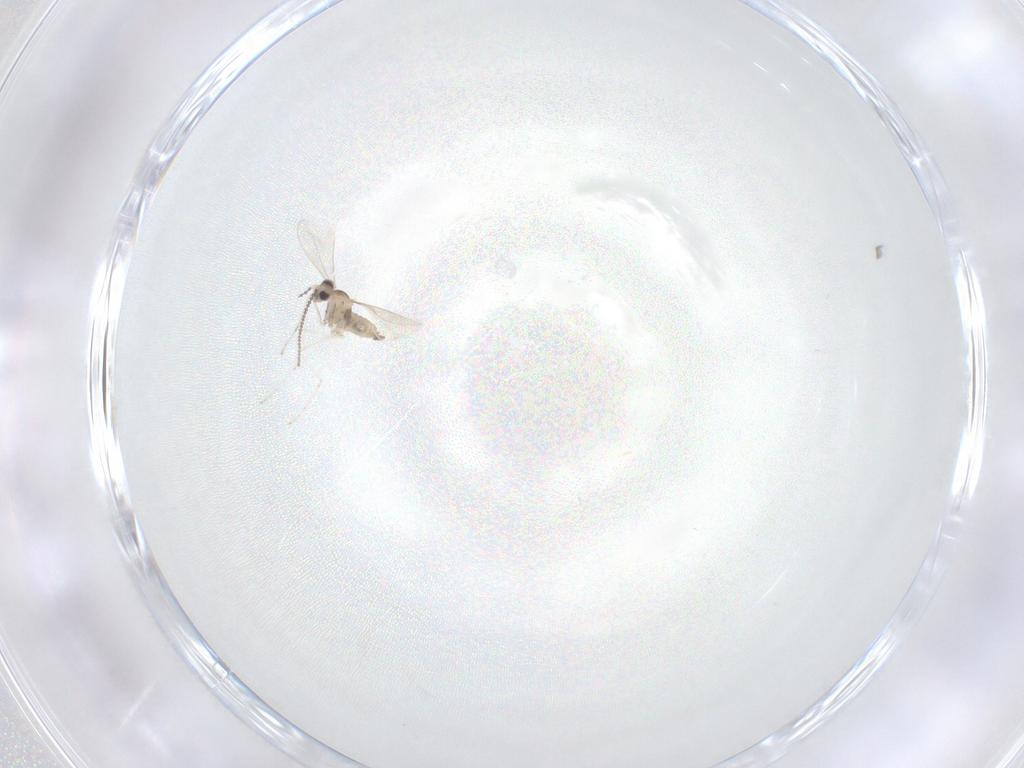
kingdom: Animalia
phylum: Arthropoda
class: Insecta
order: Diptera
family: Cecidomyiidae
